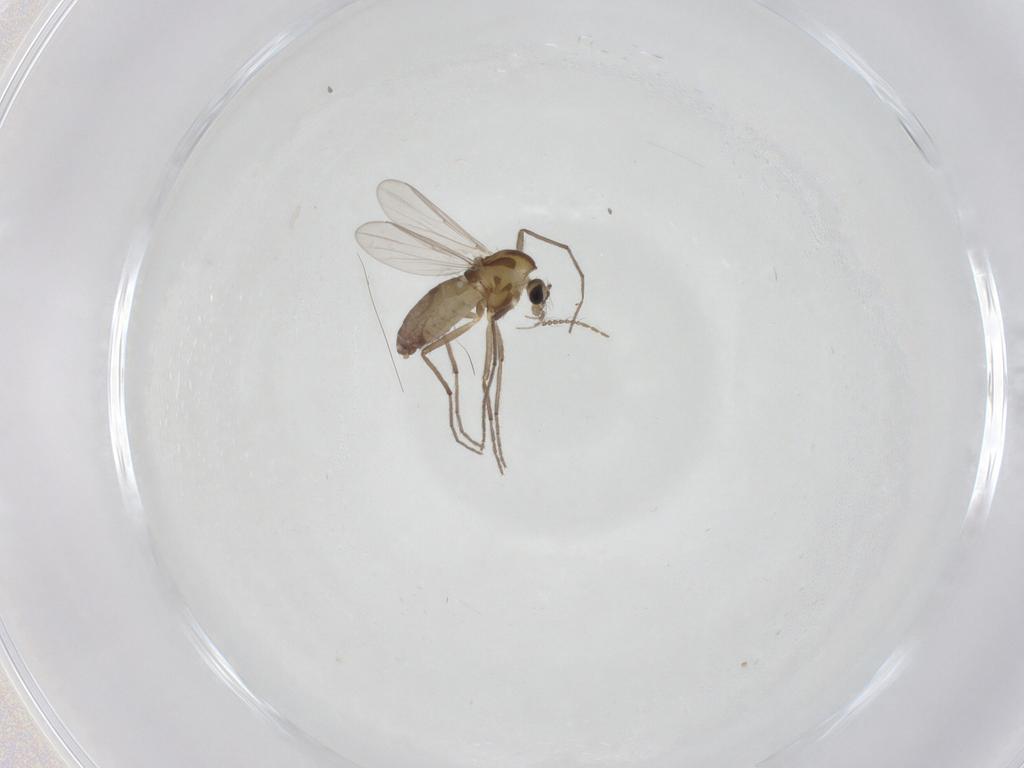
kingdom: Animalia
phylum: Arthropoda
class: Insecta
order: Diptera
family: Chironomidae
